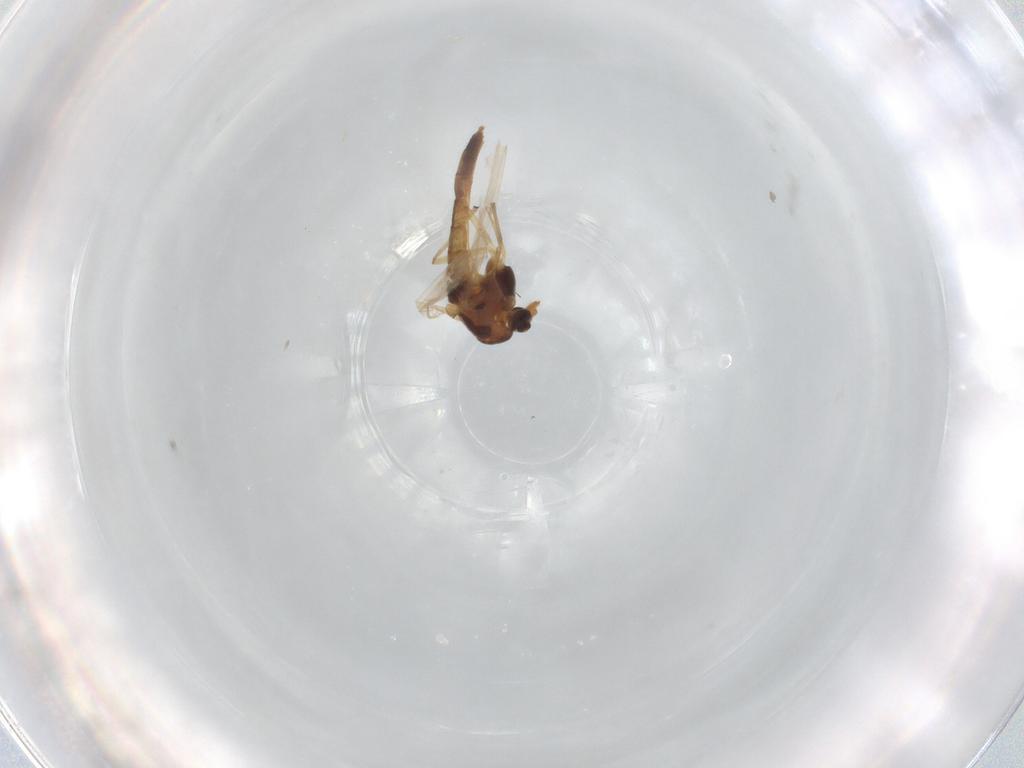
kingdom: Animalia
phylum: Arthropoda
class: Insecta
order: Diptera
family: Chironomidae
